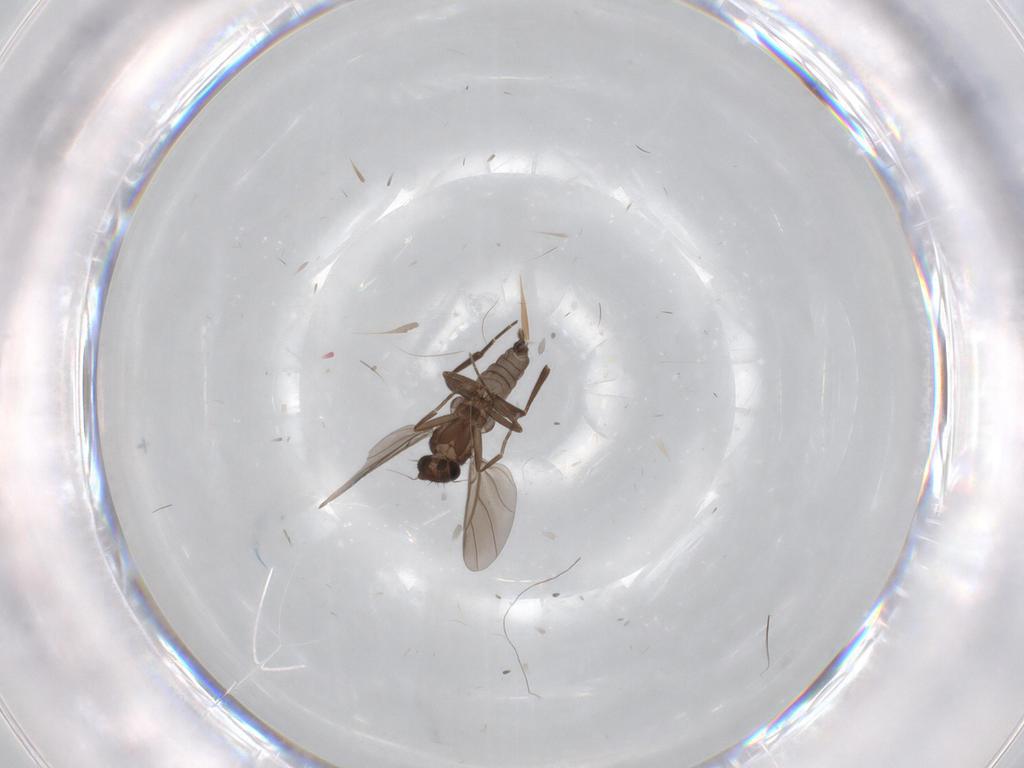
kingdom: Animalia
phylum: Arthropoda
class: Insecta
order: Diptera
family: Phoridae
